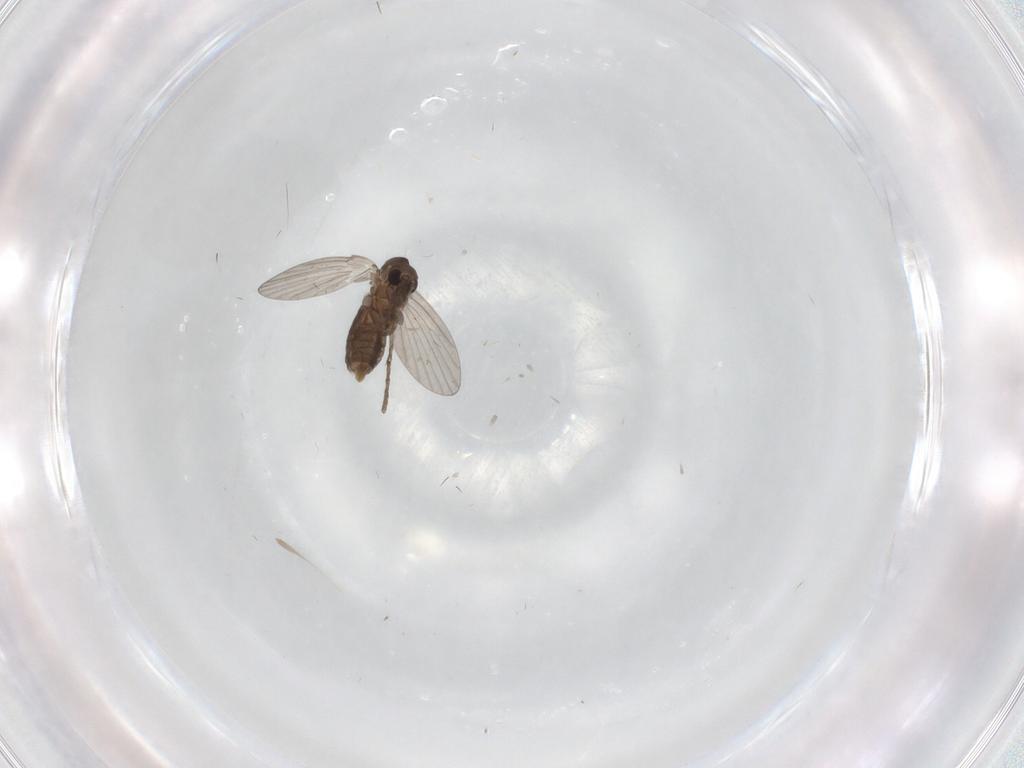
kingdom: Animalia
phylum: Arthropoda
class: Insecta
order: Diptera
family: Psychodidae
